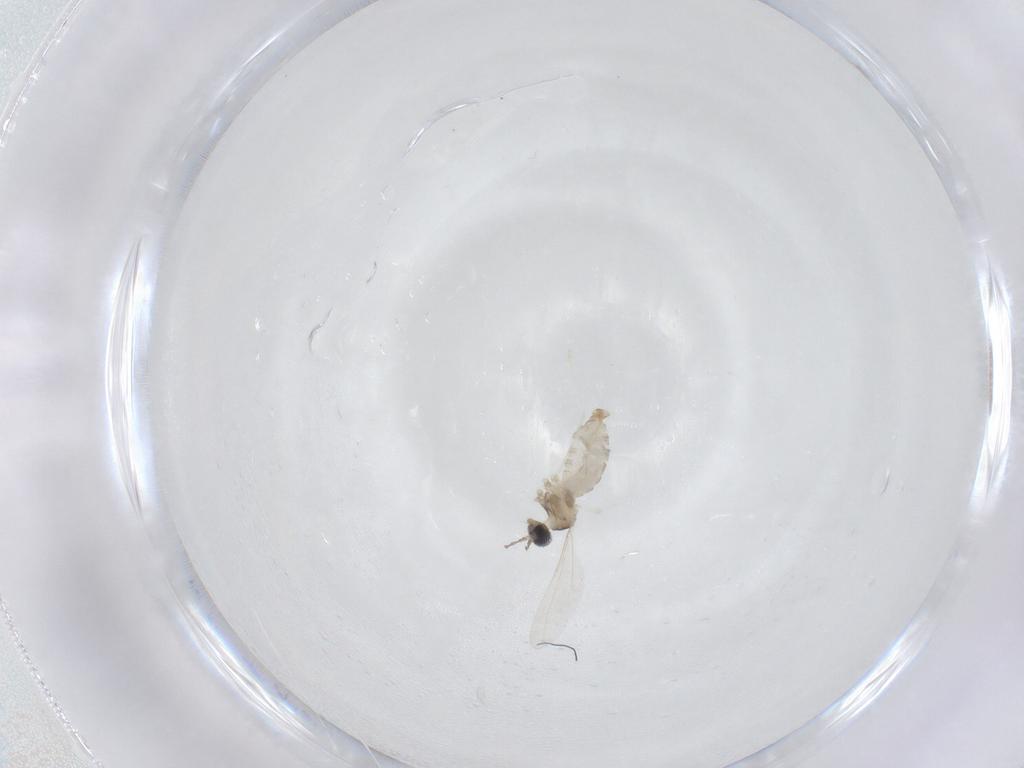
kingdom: Animalia
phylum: Arthropoda
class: Insecta
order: Diptera
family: Cecidomyiidae
